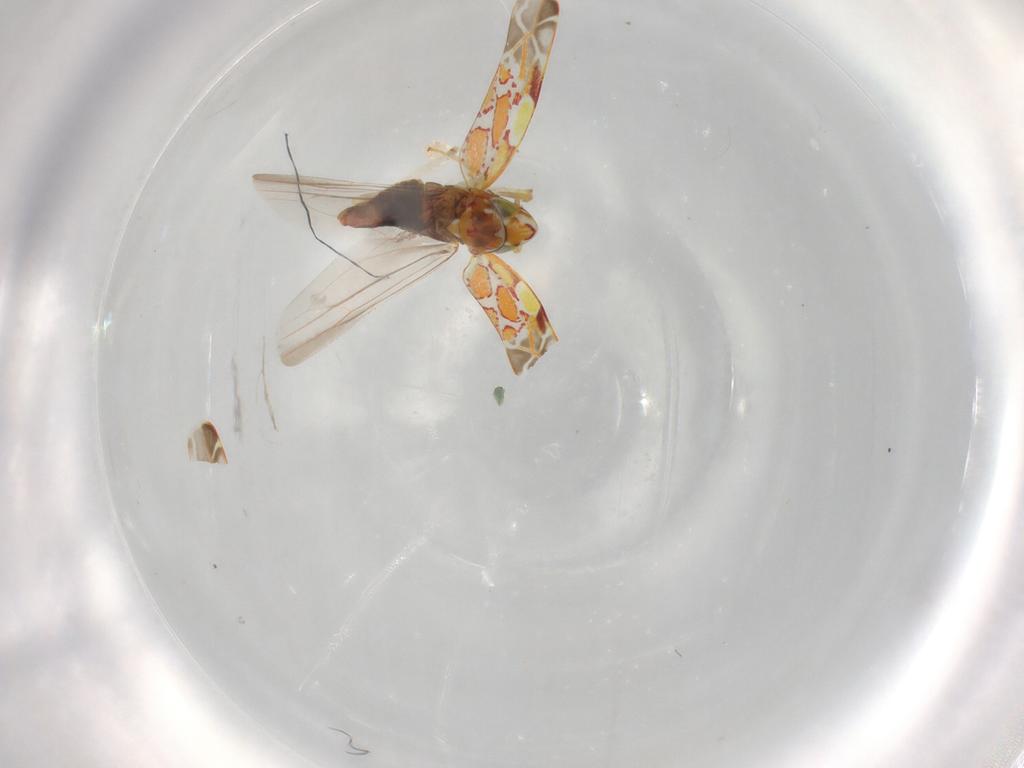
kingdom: Animalia
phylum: Arthropoda
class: Insecta
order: Hemiptera
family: Cicadellidae
